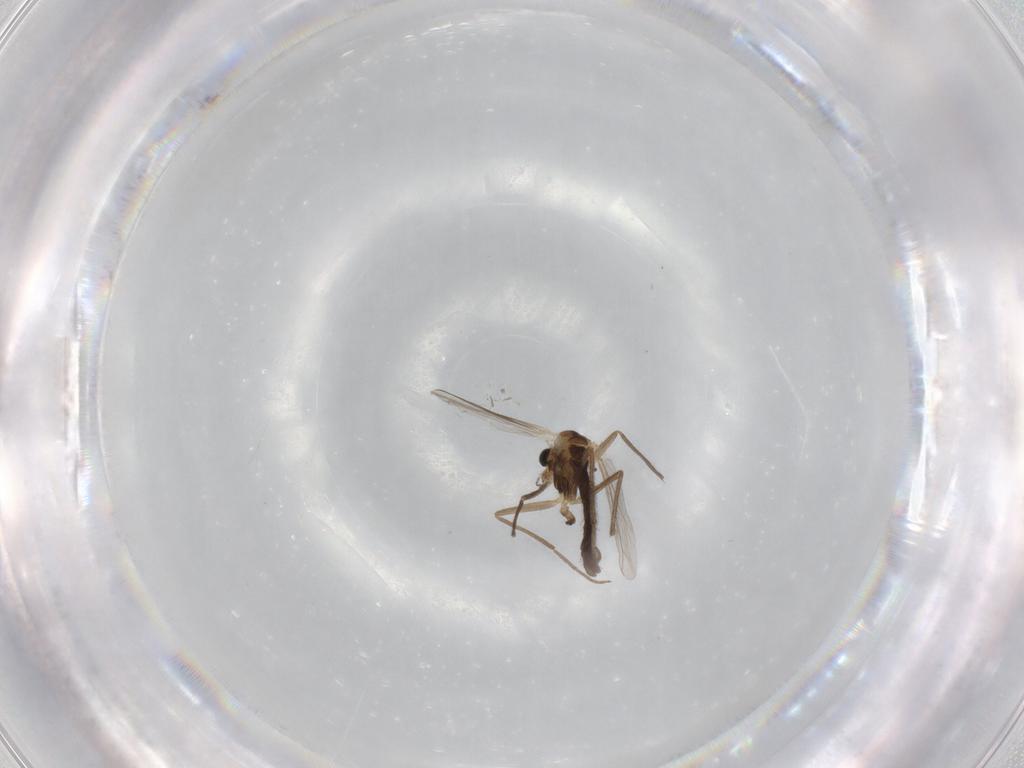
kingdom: Animalia
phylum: Arthropoda
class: Insecta
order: Diptera
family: Chironomidae
